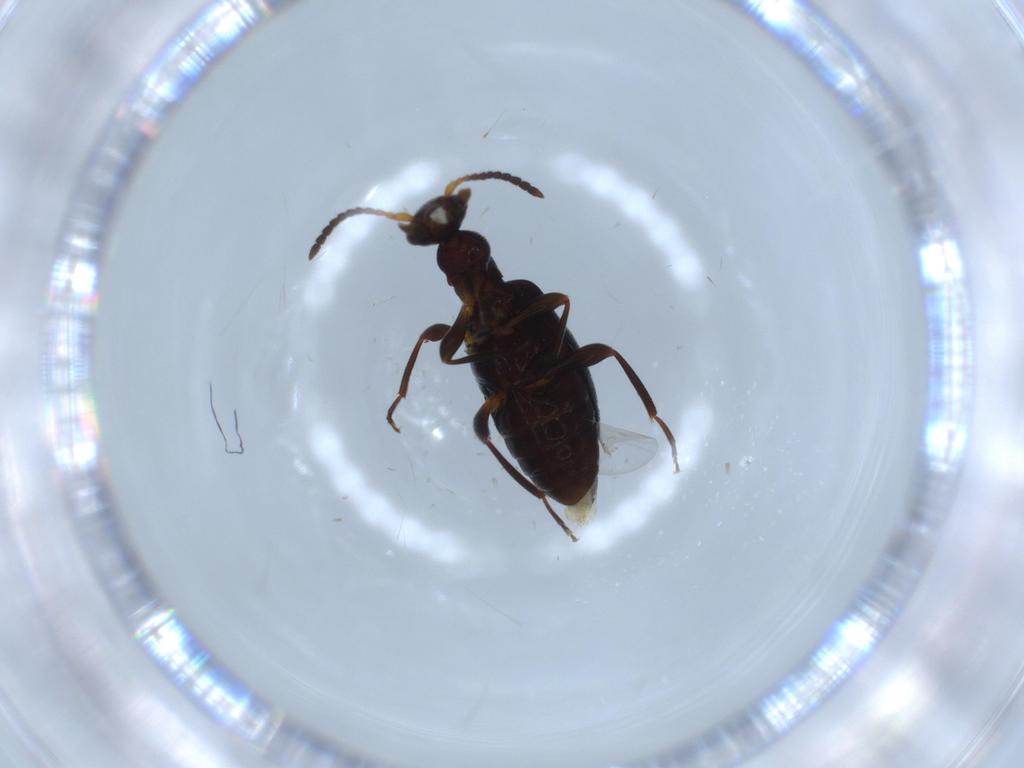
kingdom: Animalia
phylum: Arthropoda
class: Insecta
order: Coleoptera
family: Anthicidae
